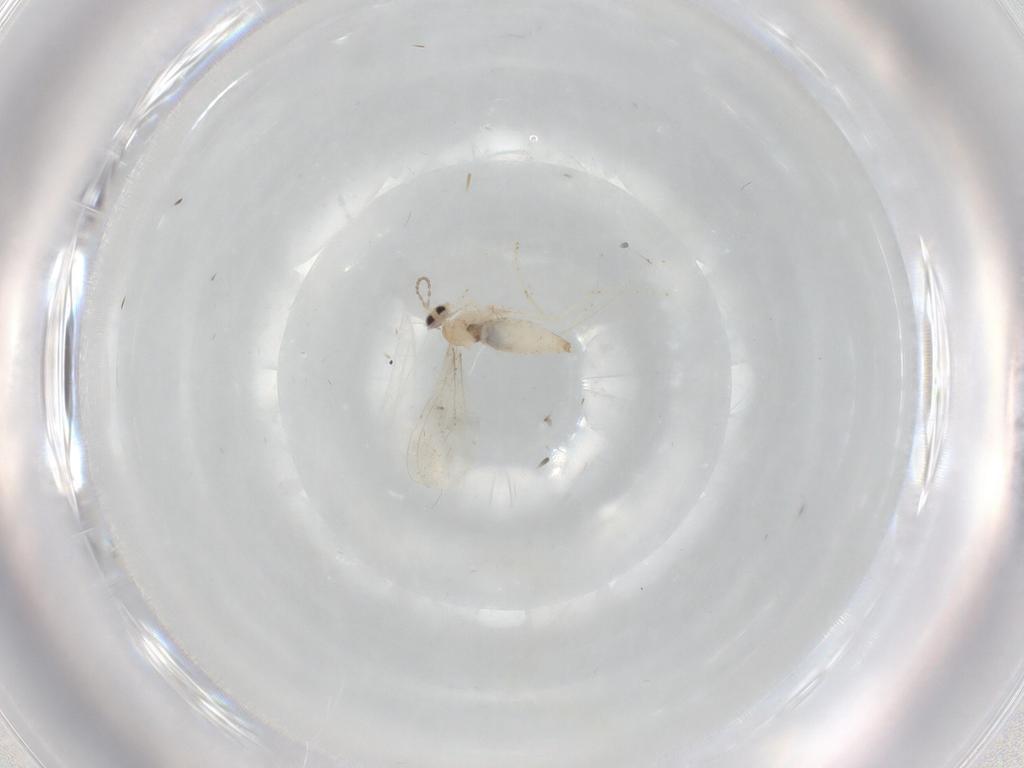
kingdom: Animalia
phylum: Arthropoda
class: Insecta
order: Diptera
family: Cecidomyiidae
